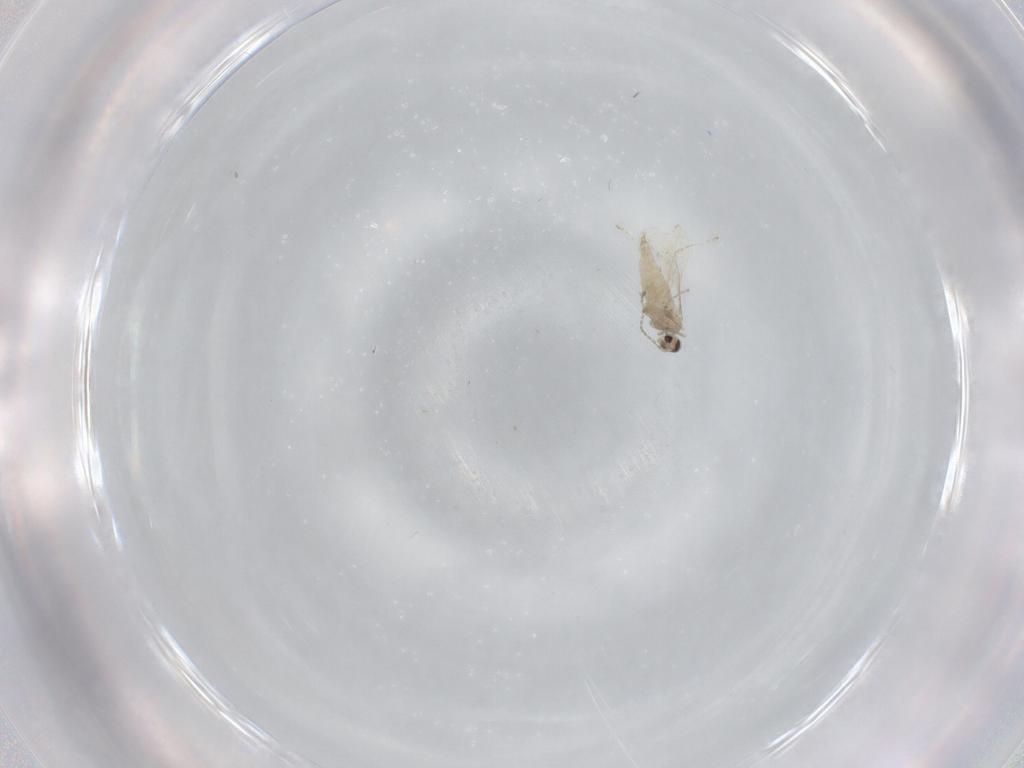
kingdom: Animalia
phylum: Arthropoda
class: Insecta
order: Diptera
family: Cecidomyiidae
